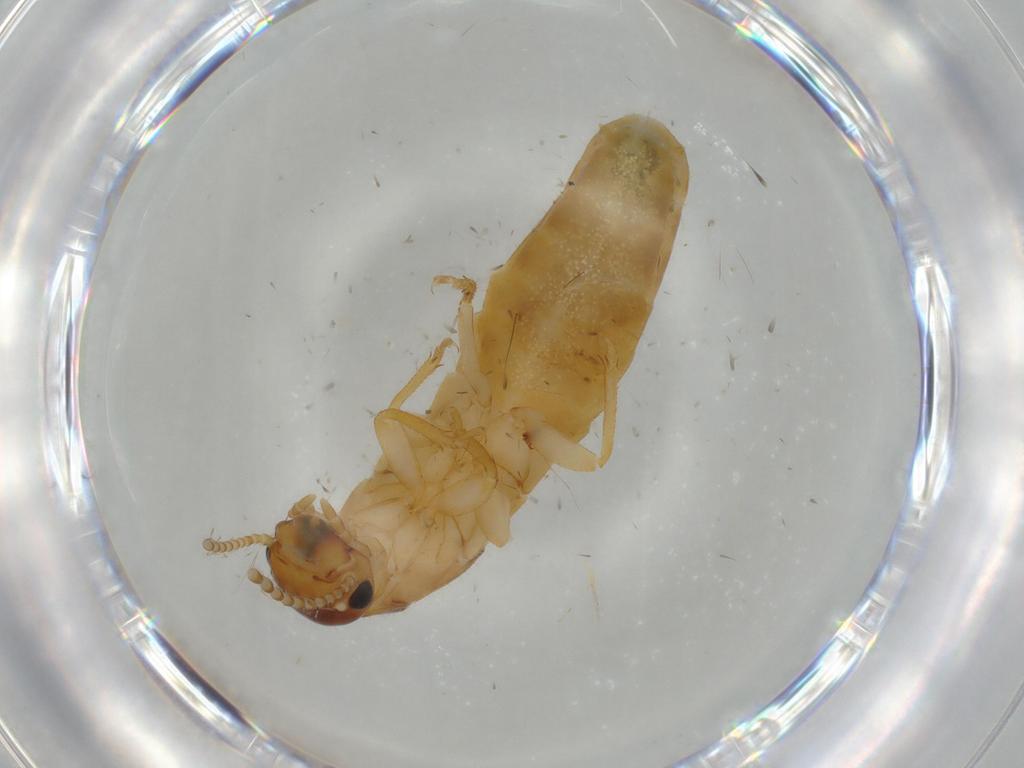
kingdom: Animalia
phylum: Arthropoda
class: Insecta
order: Blattodea
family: Kalotermitidae
